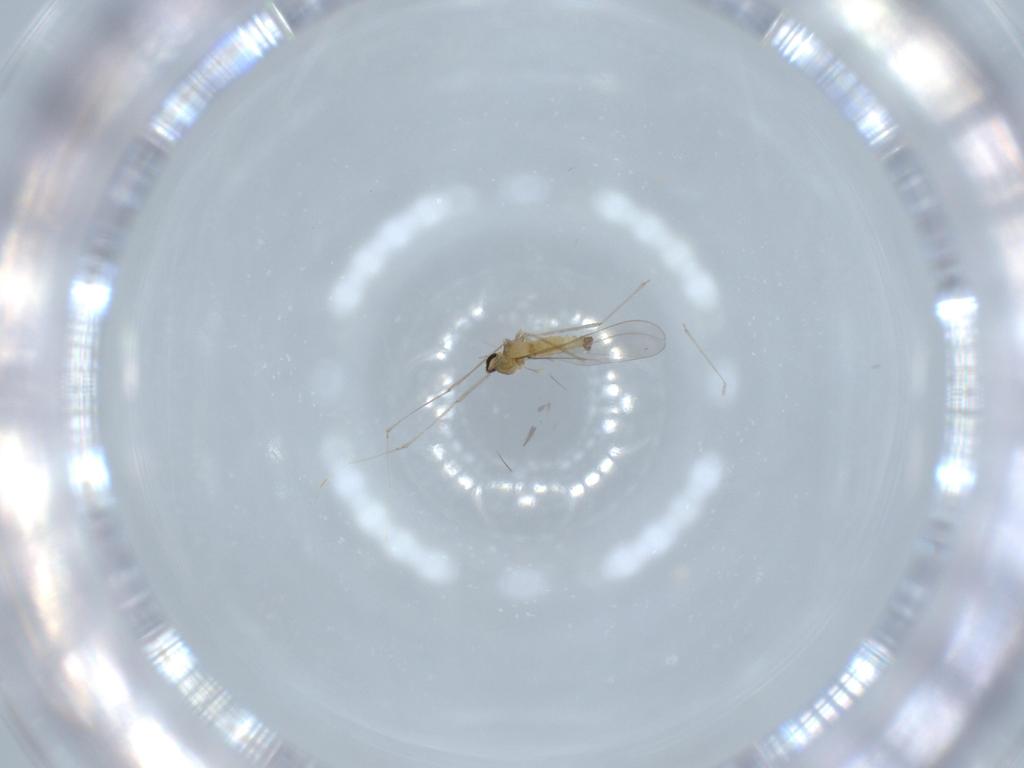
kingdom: Animalia
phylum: Arthropoda
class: Insecta
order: Diptera
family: Cecidomyiidae
